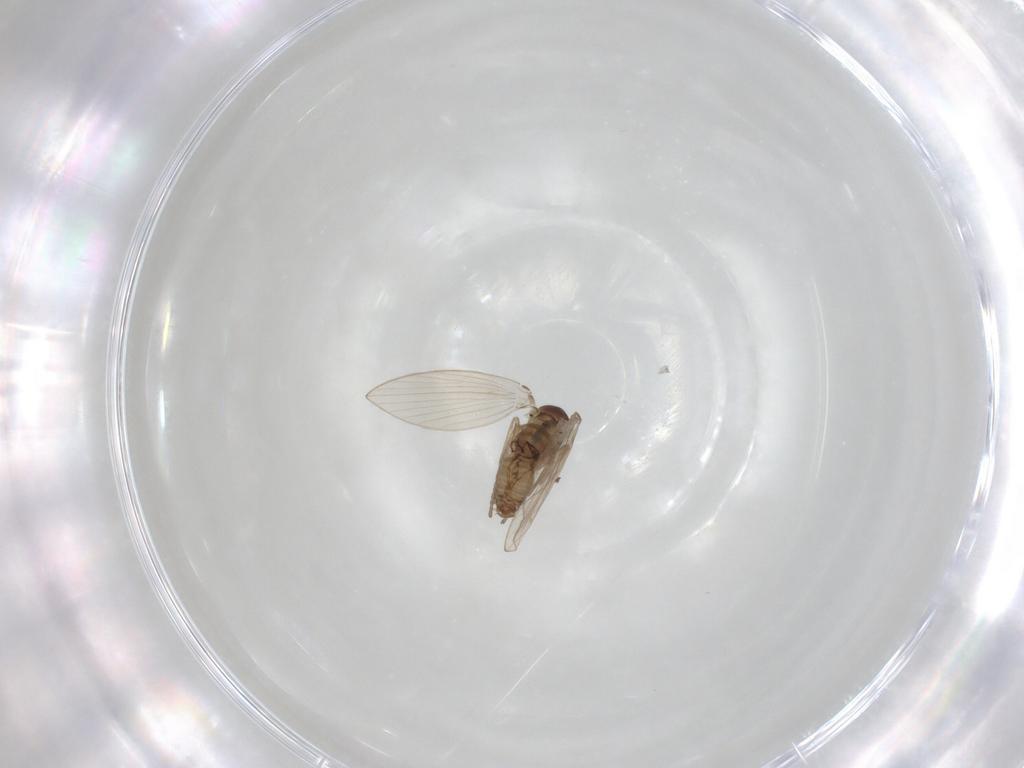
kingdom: Animalia
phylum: Arthropoda
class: Insecta
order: Diptera
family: Psychodidae
